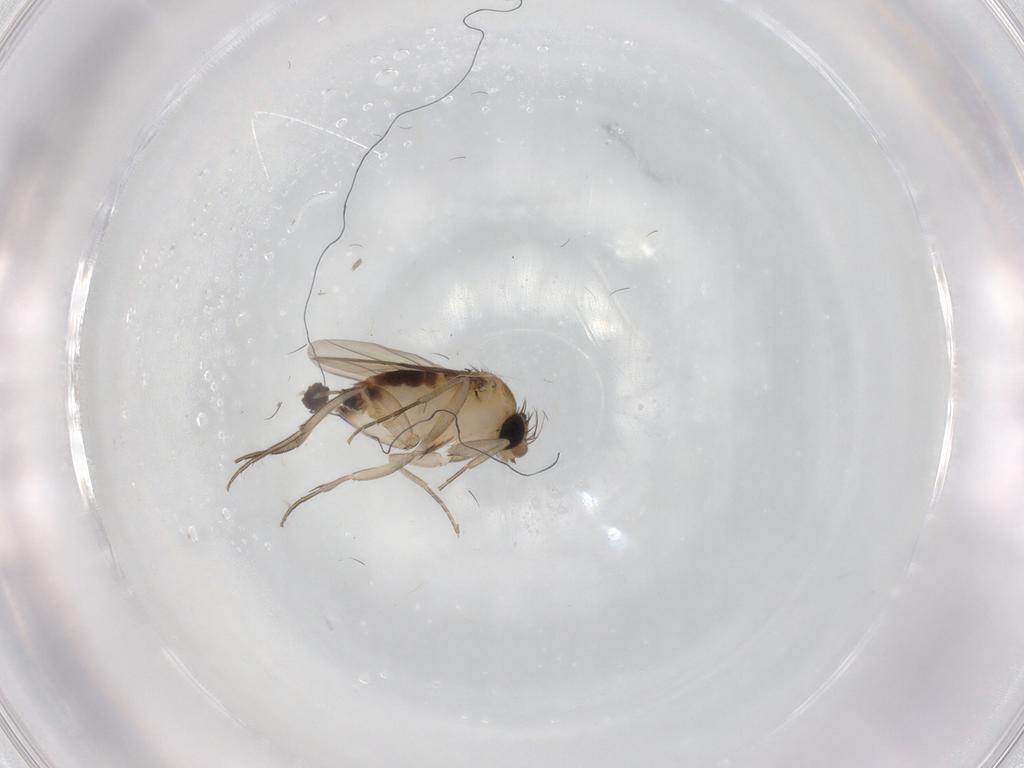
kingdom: Animalia
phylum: Arthropoda
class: Insecta
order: Diptera
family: Phoridae
